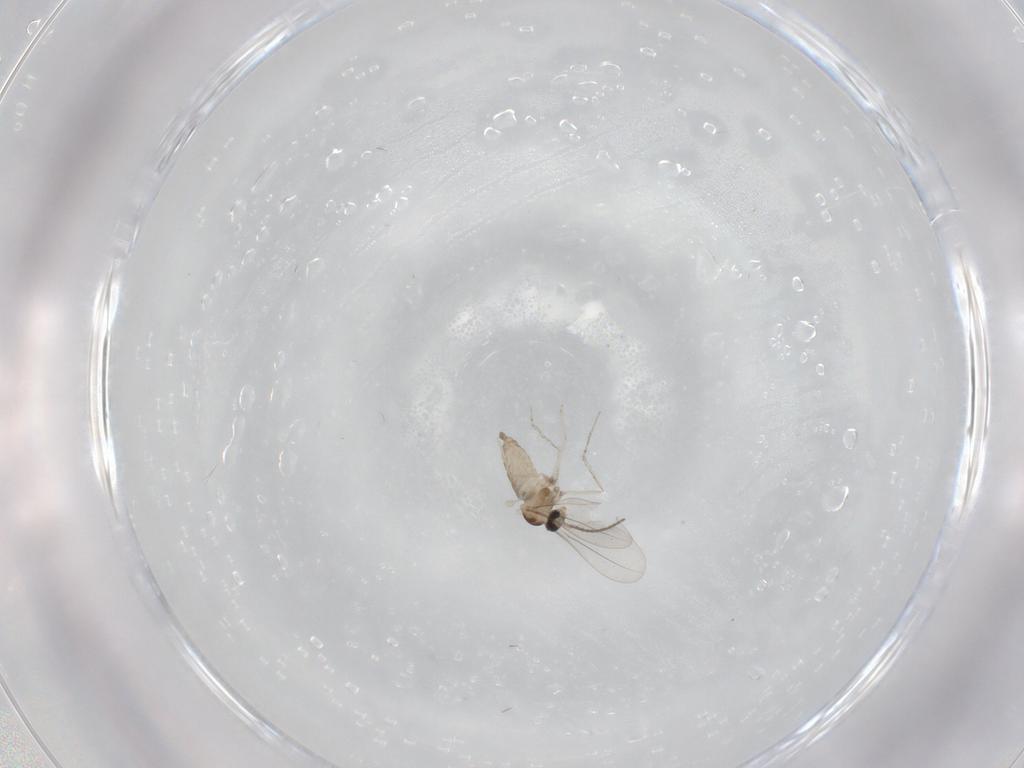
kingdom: Animalia
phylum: Arthropoda
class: Insecta
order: Diptera
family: Cecidomyiidae
